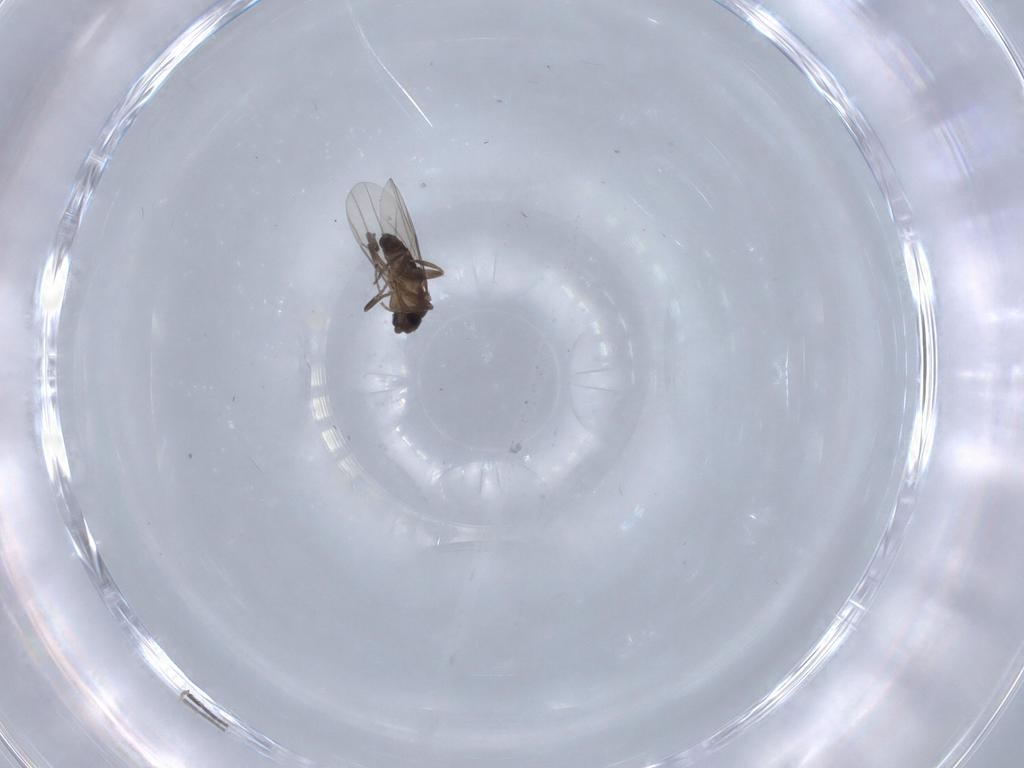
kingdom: Animalia
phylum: Arthropoda
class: Insecta
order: Diptera
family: Phoridae
